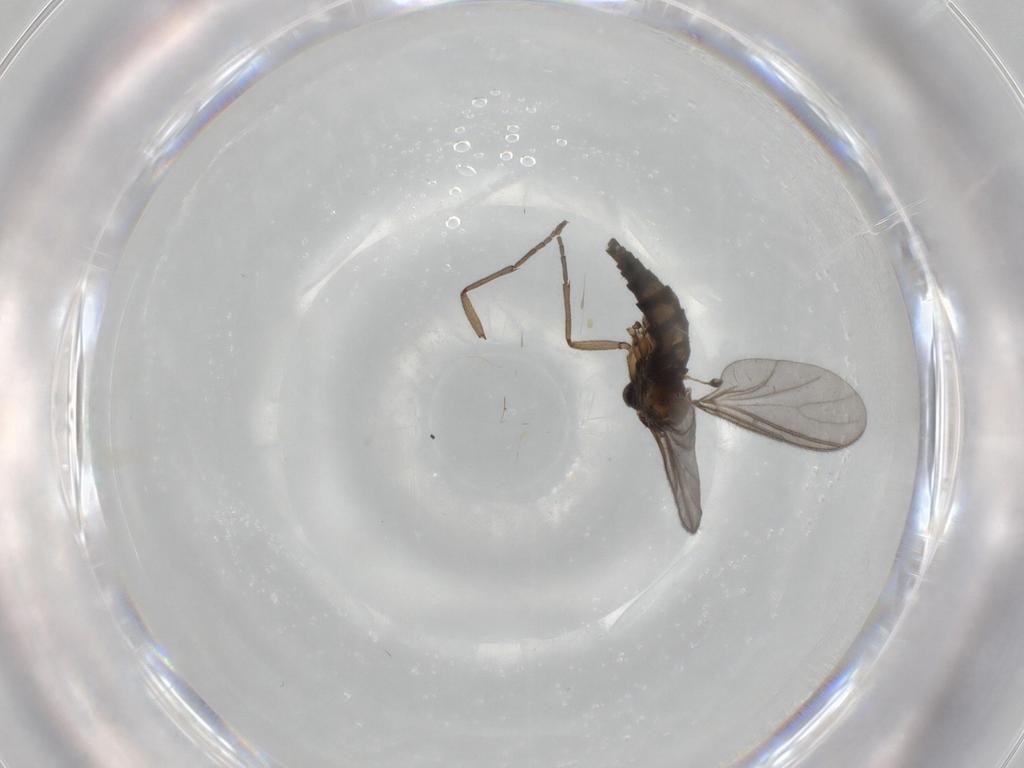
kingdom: Animalia
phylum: Arthropoda
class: Insecta
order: Diptera
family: Sciaridae
